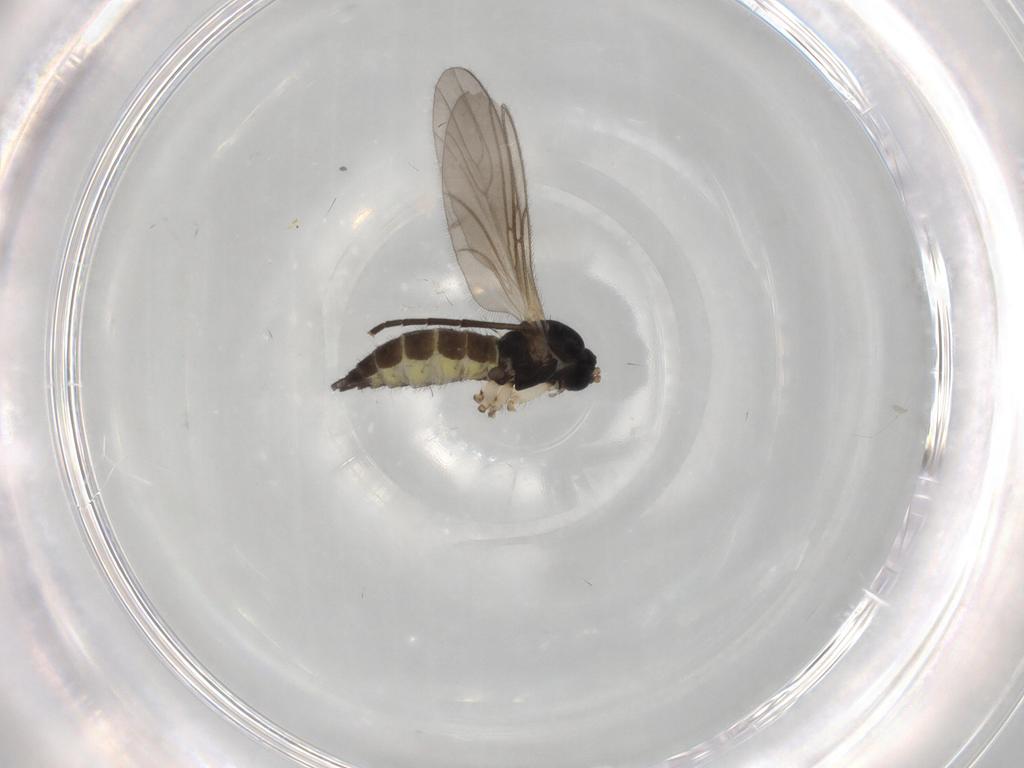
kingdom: Animalia
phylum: Arthropoda
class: Insecta
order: Diptera
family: Sciaridae
